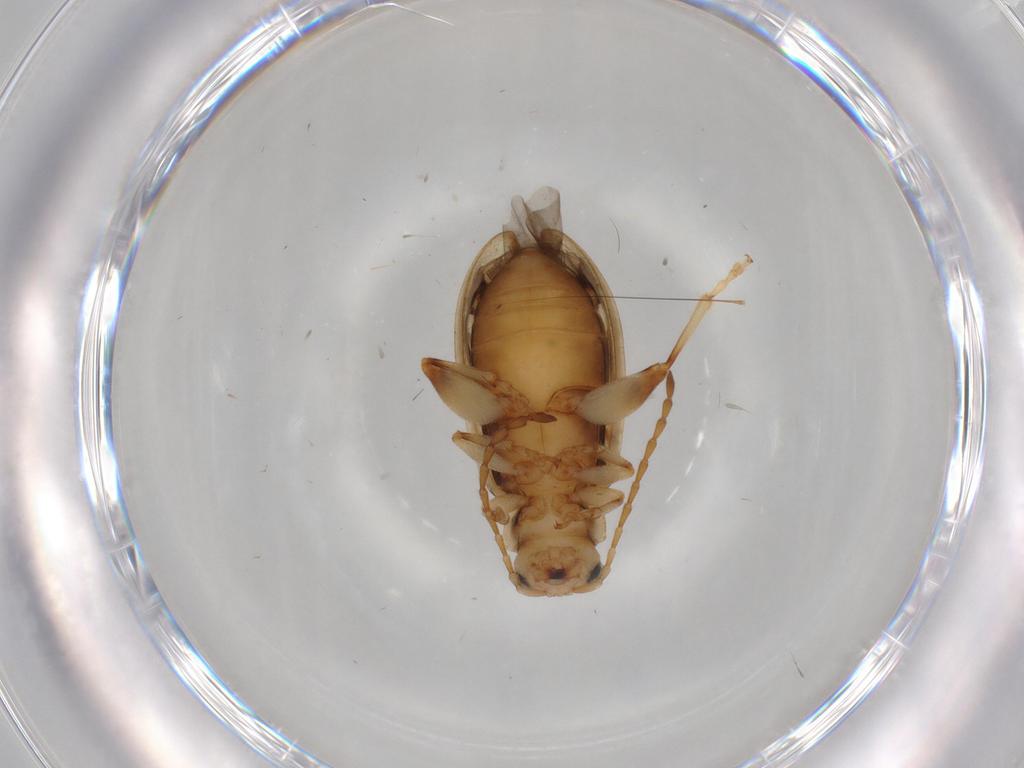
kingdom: Animalia
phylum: Arthropoda
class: Insecta
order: Coleoptera
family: Chrysomelidae
